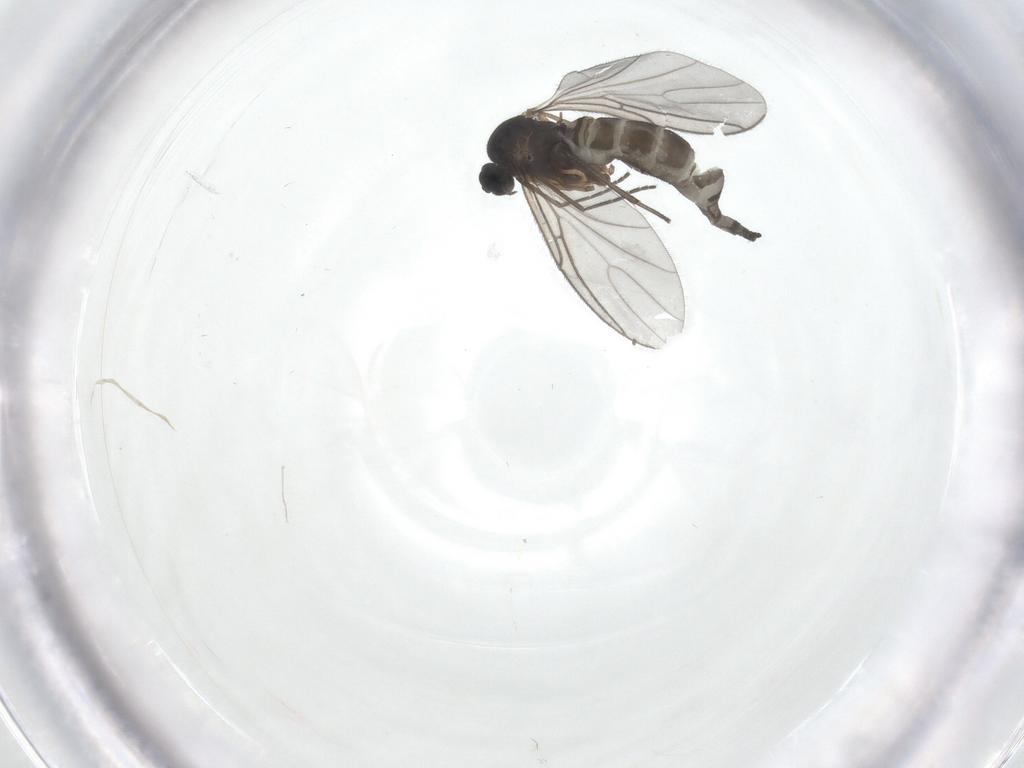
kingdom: Animalia
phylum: Arthropoda
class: Insecta
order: Diptera
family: Sciaridae
